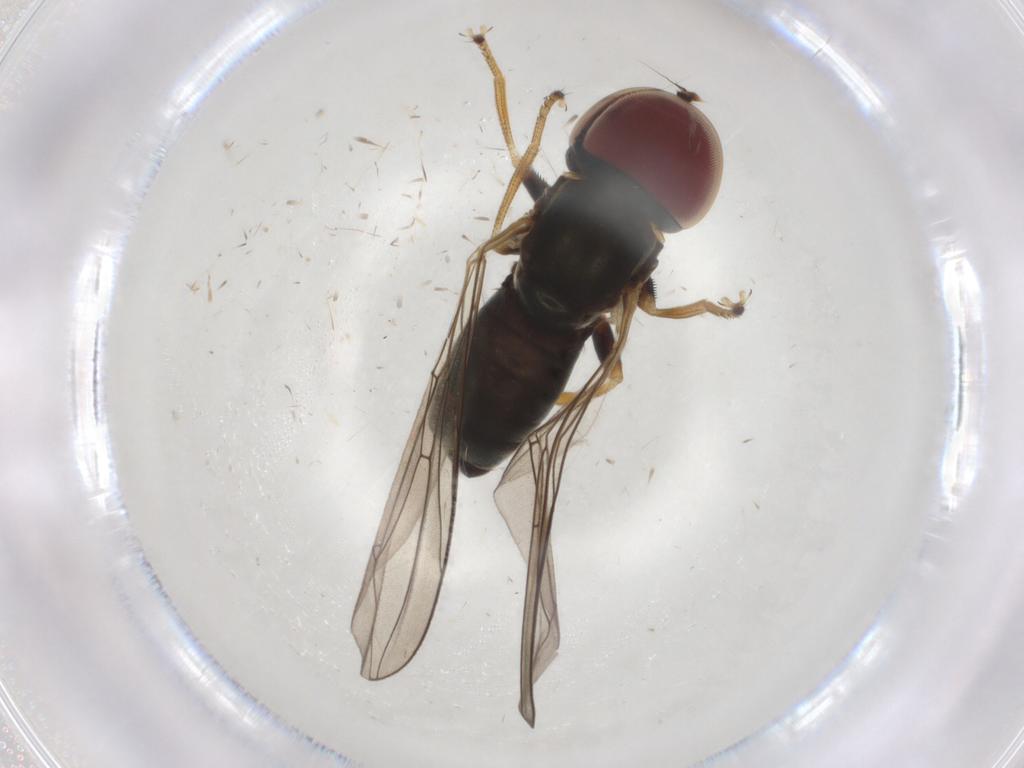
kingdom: Animalia
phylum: Arthropoda
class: Insecta
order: Diptera
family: Pipunculidae
